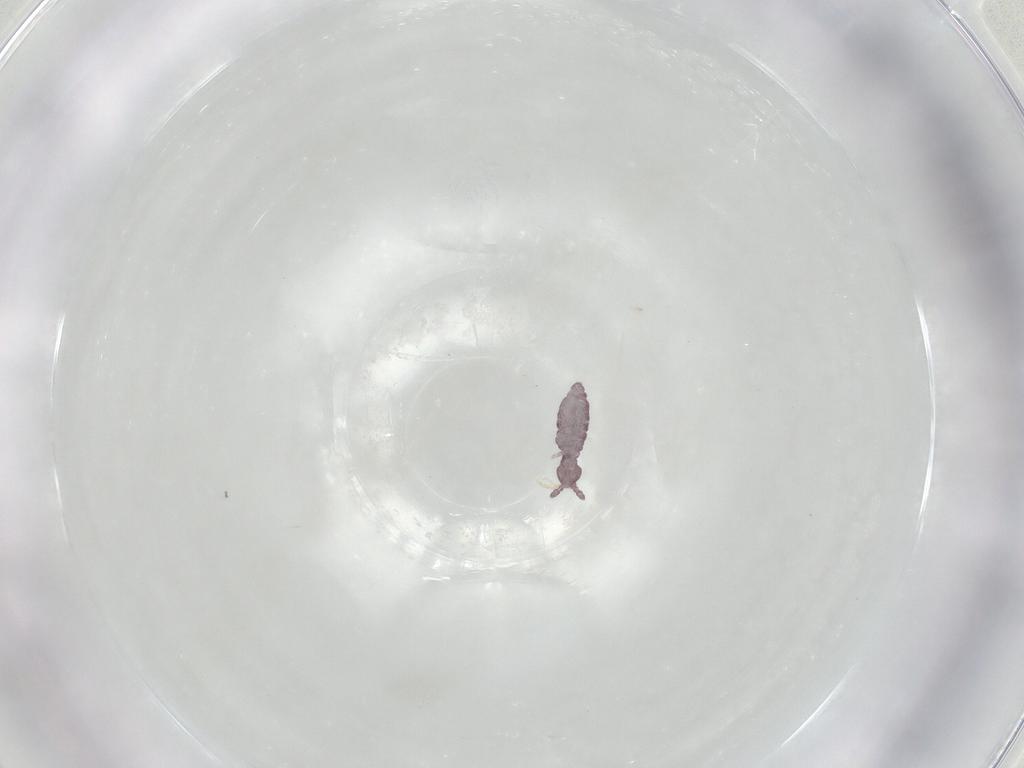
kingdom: Animalia
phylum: Arthropoda
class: Collembola
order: Poduromorpha
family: Hypogastruridae
